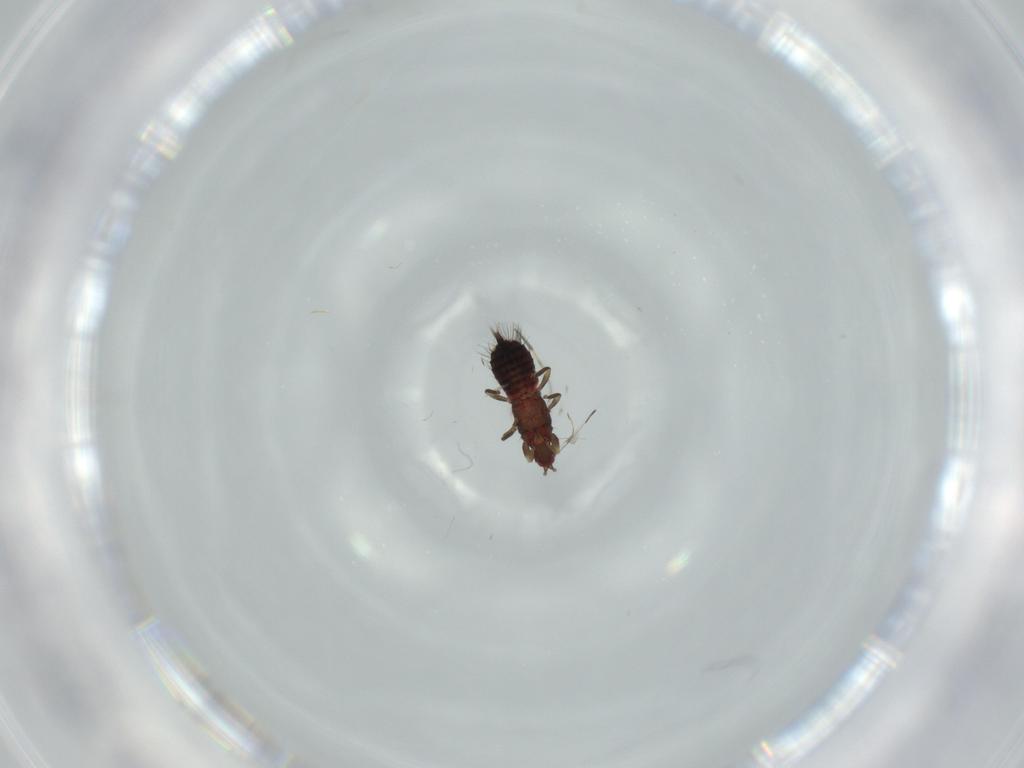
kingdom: Animalia
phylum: Arthropoda
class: Insecta
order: Thysanoptera
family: Phlaeothripidae
